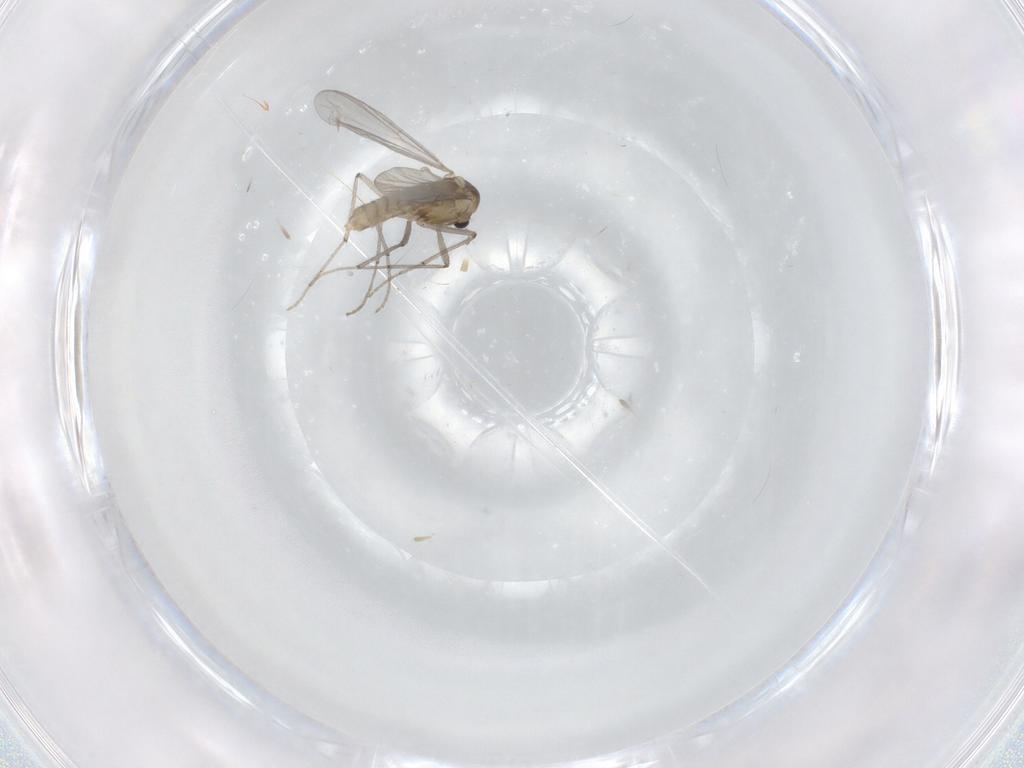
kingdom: Animalia
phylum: Arthropoda
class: Insecta
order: Diptera
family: Chironomidae
